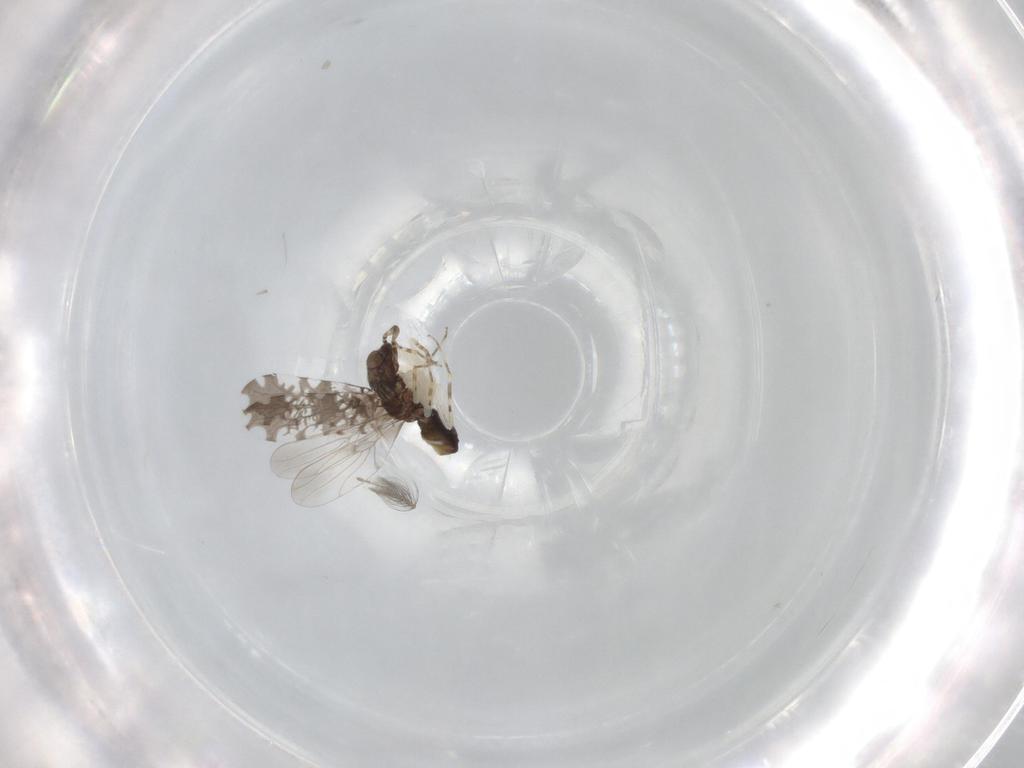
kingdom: Animalia
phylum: Arthropoda
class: Insecta
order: Psocodea
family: Psoquillidae
